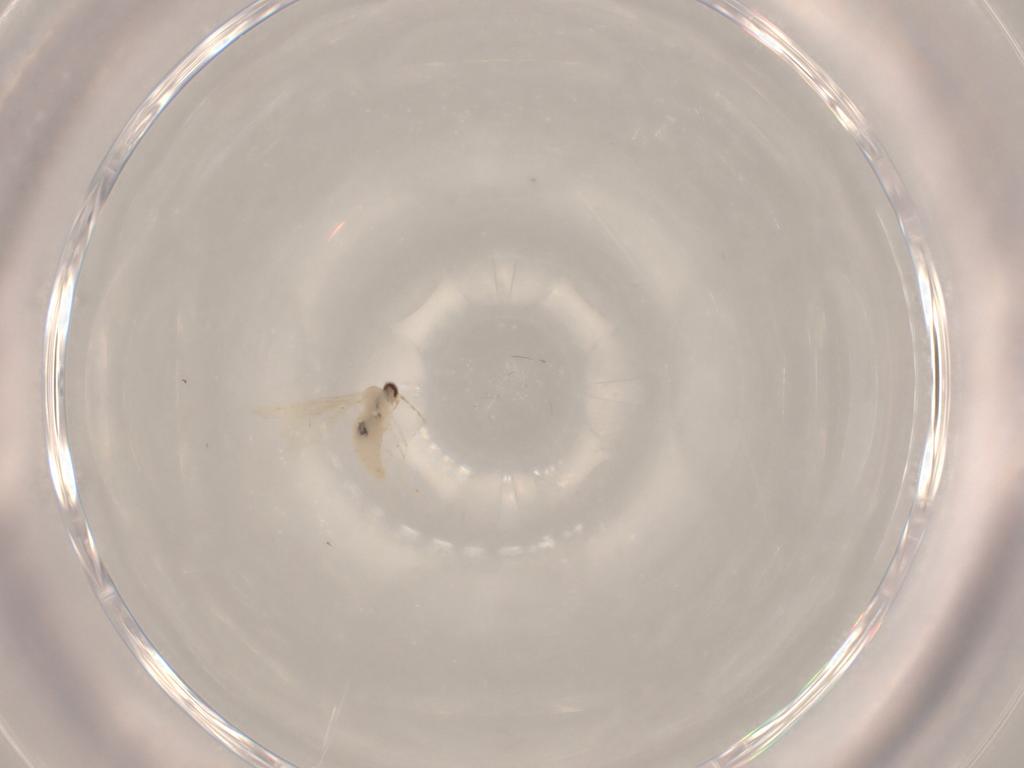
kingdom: Animalia
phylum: Arthropoda
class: Insecta
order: Diptera
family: Cecidomyiidae
